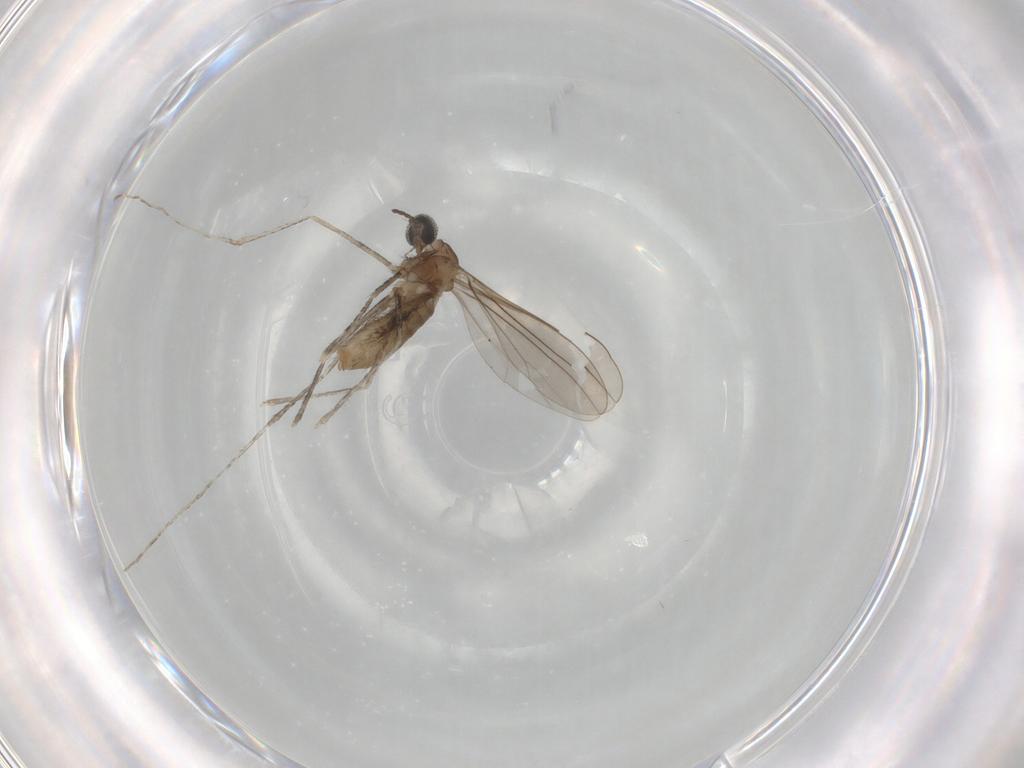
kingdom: Animalia
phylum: Arthropoda
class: Insecta
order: Diptera
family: Cecidomyiidae
